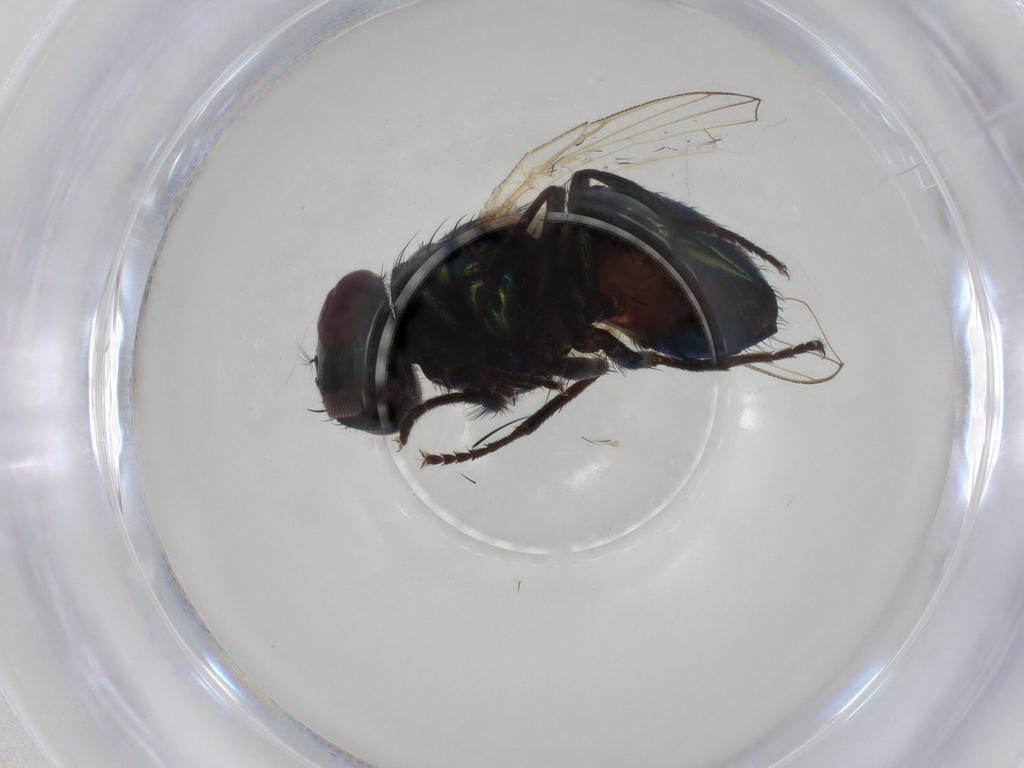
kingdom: Animalia
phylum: Arthropoda
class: Insecta
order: Diptera
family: Muscidae
